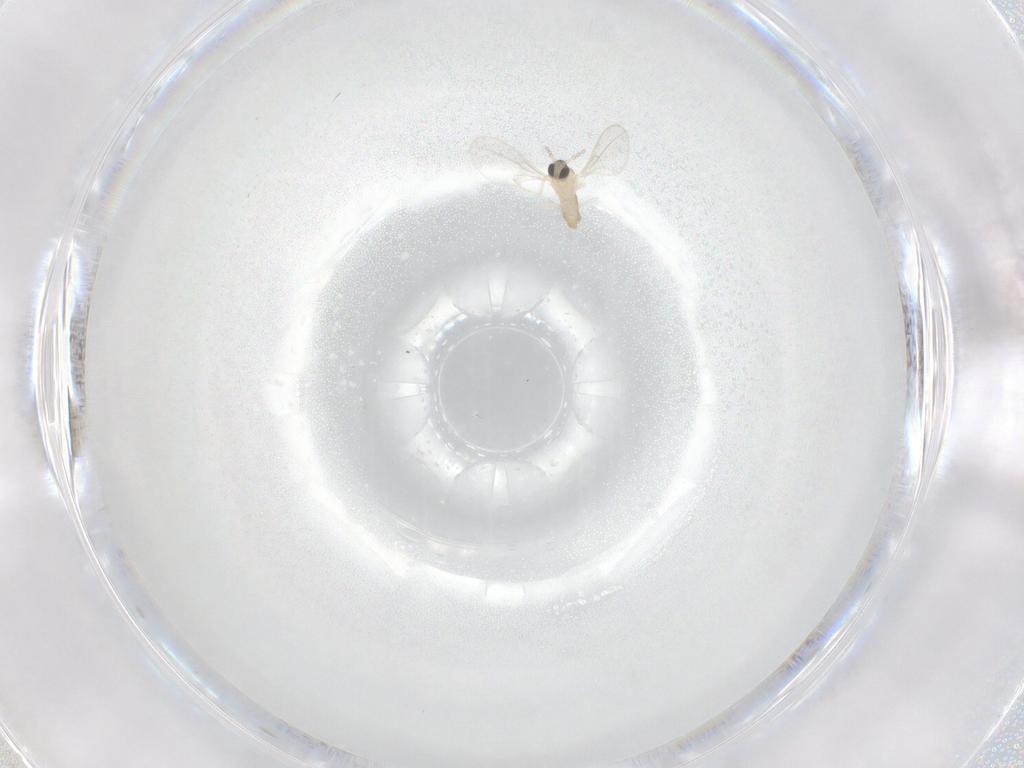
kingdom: Animalia
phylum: Arthropoda
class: Insecta
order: Diptera
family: Cecidomyiidae
